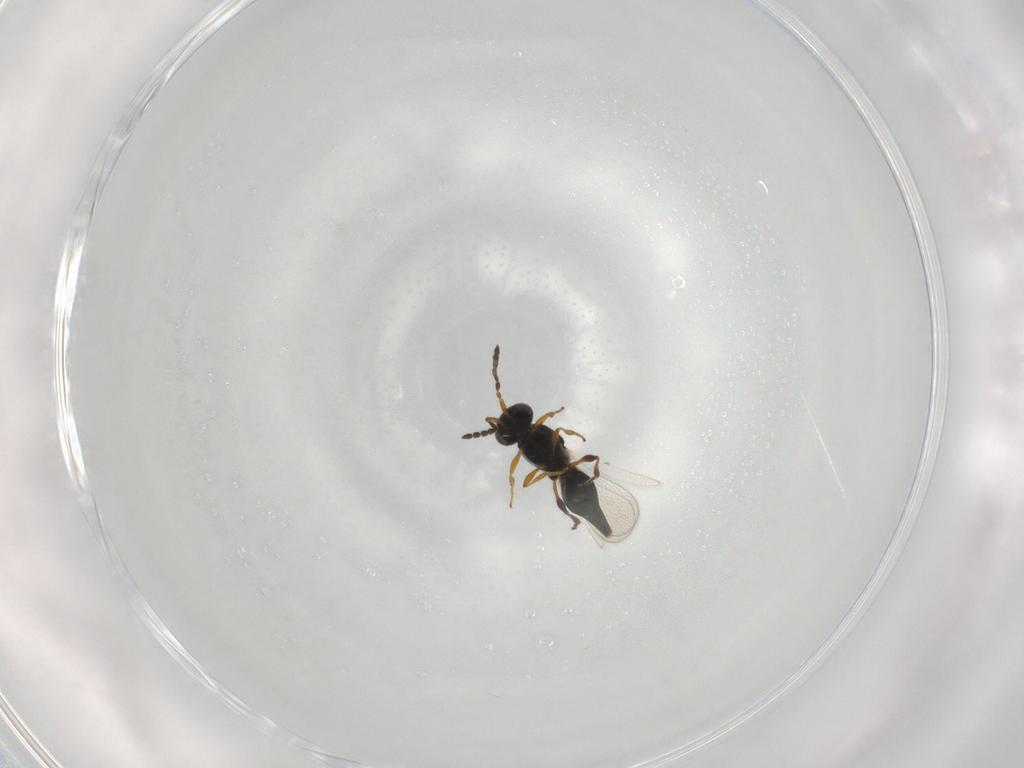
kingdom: Animalia
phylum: Arthropoda
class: Insecta
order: Hymenoptera
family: Platygastridae
